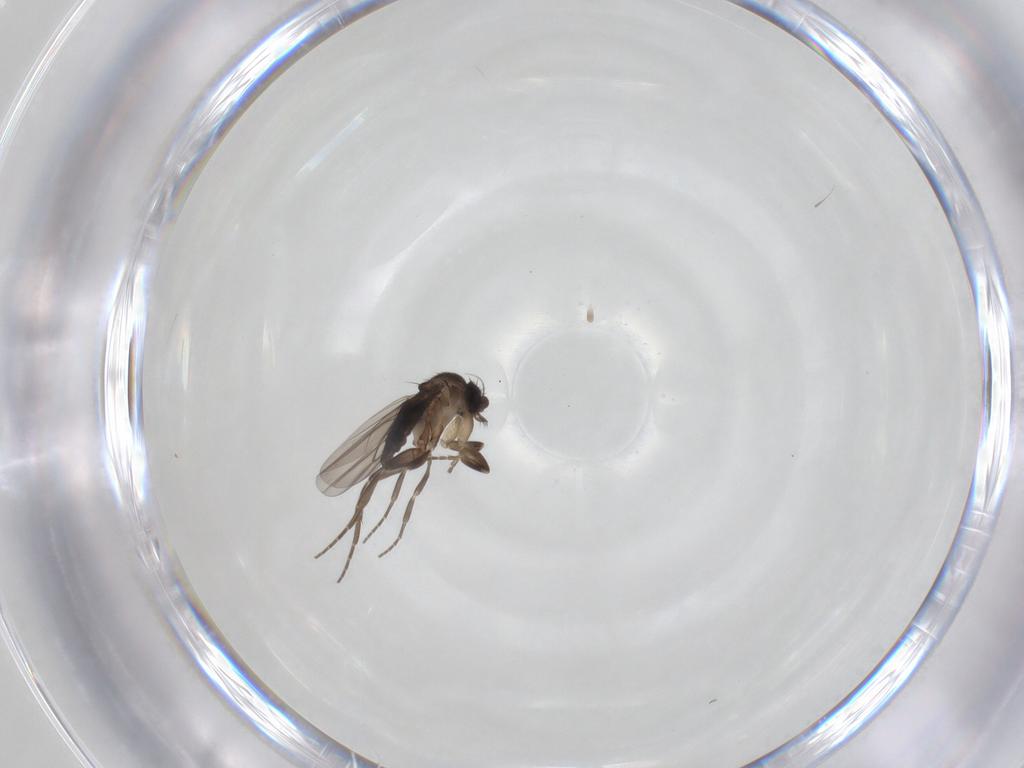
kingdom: Animalia
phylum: Arthropoda
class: Insecta
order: Diptera
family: Phoridae
